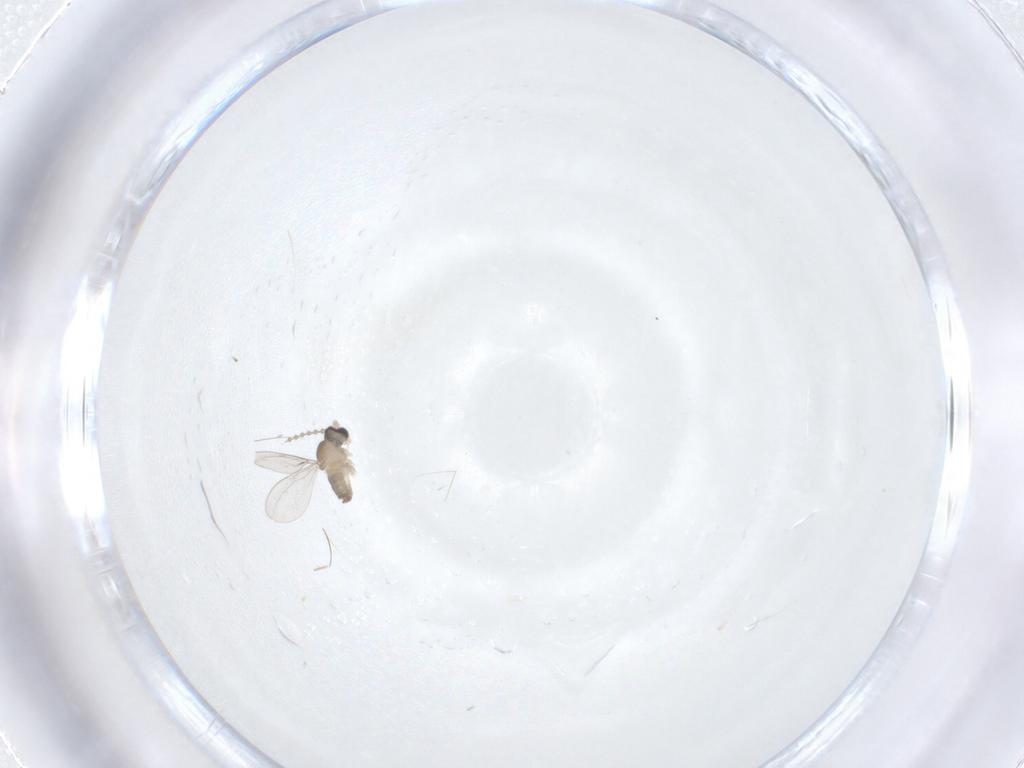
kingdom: Animalia
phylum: Arthropoda
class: Insecta
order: Diptera
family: Cecidomyiidae
